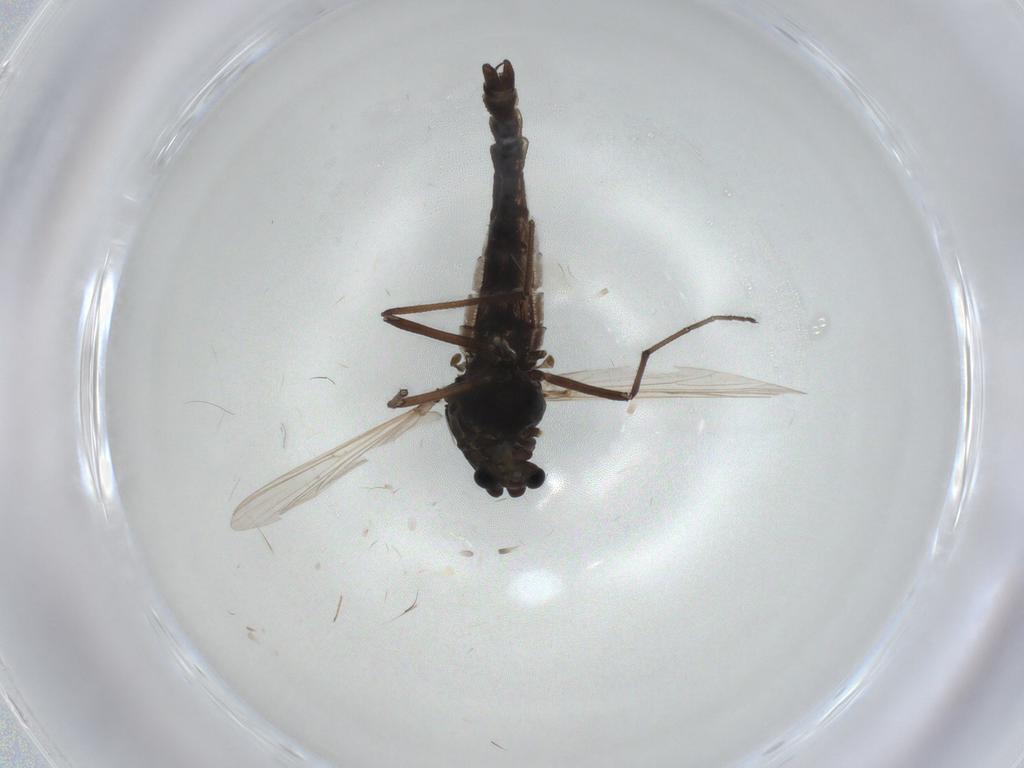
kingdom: Animalia
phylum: Arthropoda
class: Insecta
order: Diptera
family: Chironomidae
